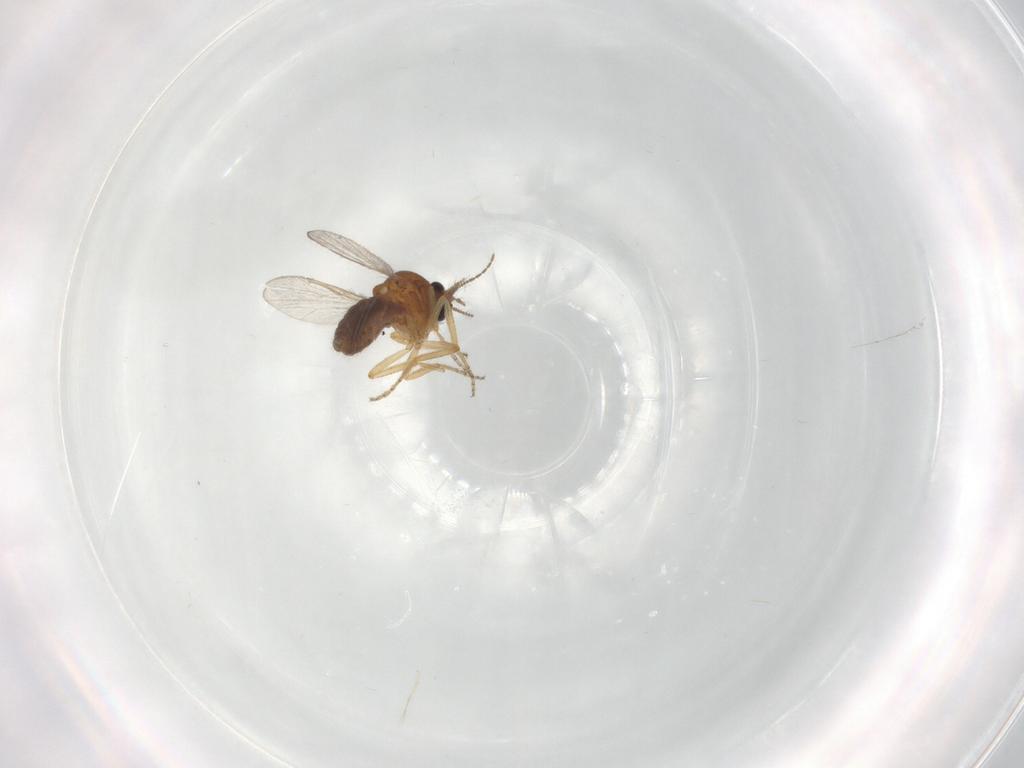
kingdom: Animalia
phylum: Arthropoda
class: Insecta
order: Diptera
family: Ceratopogonidae
